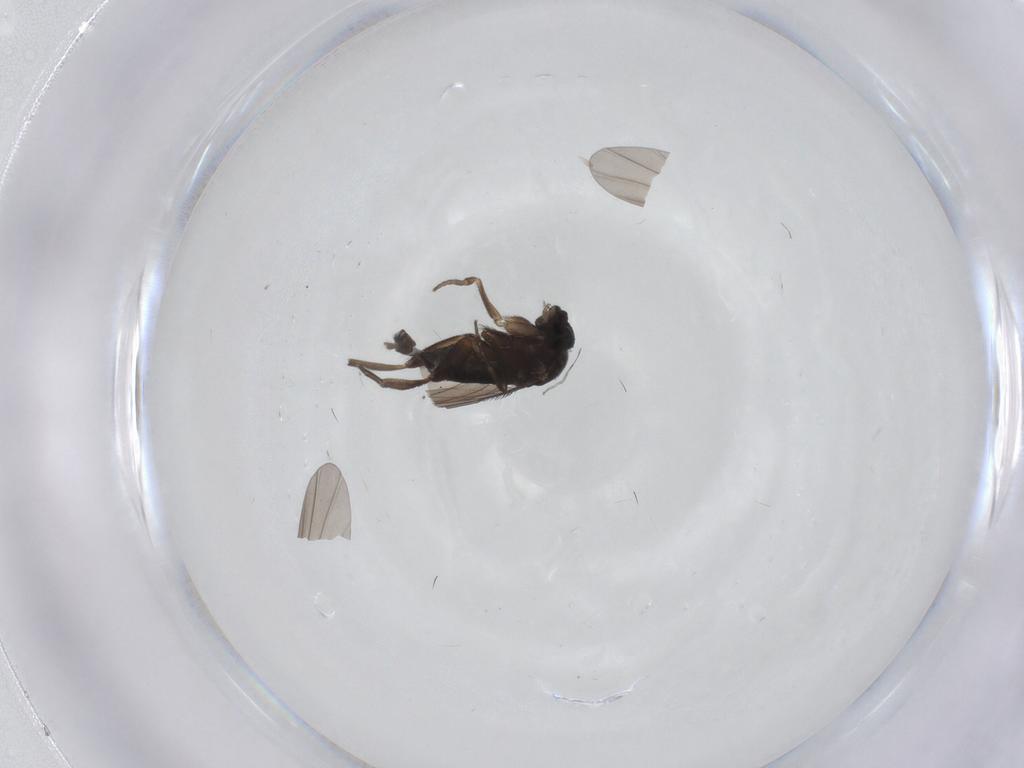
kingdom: Animalia
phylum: Arthropoda
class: Insecta
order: Diptera
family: Phoridae
